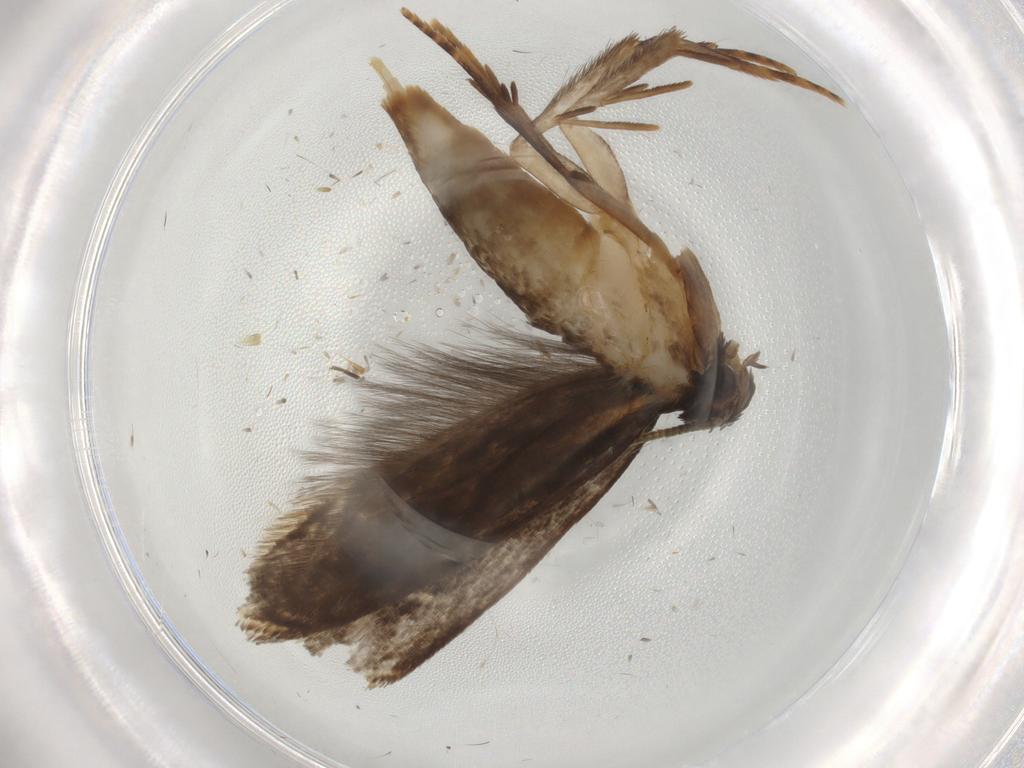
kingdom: Animalia
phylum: Arthropoda
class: Insecta
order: Lepidoptera
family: Tineidae
